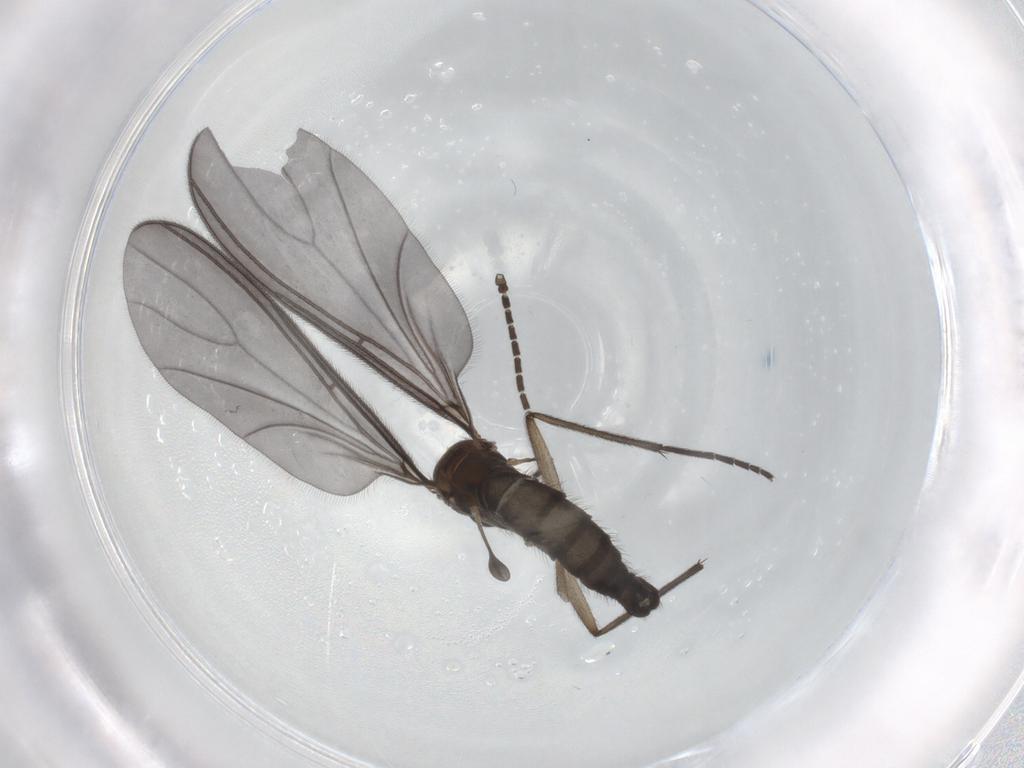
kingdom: Animalia
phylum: Arthropoda
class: Insecta
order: Diptera
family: Sciaridae
